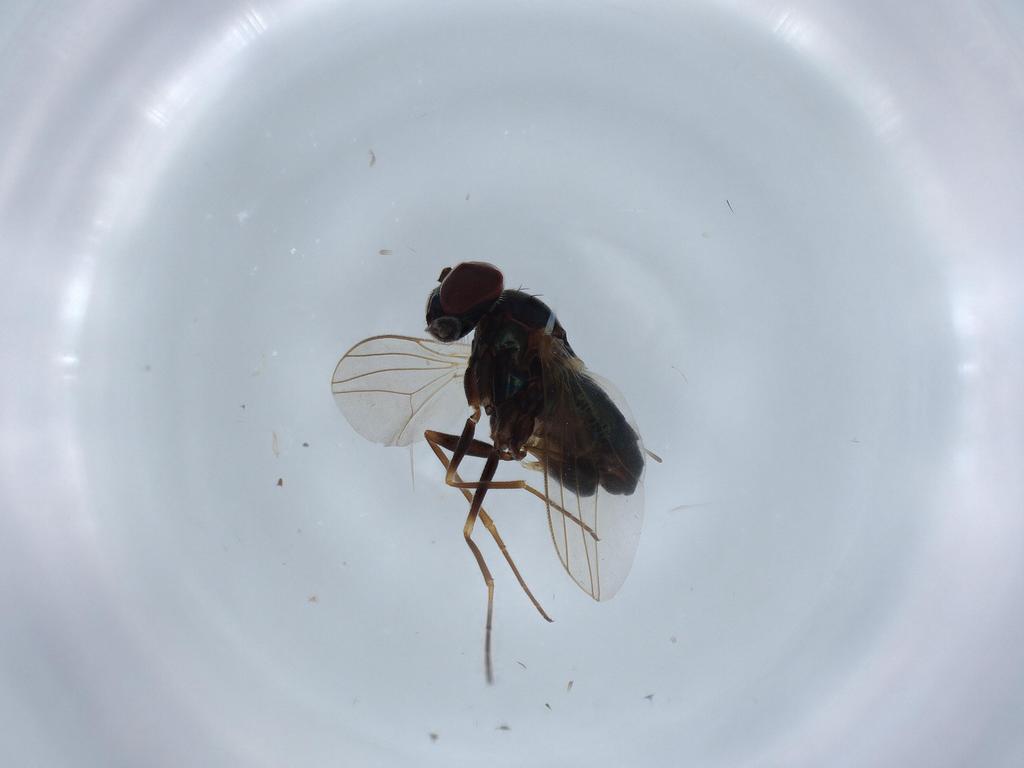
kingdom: Animalia
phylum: Arthropoda
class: Insecta
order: Diptera
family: Dolichopodidae
